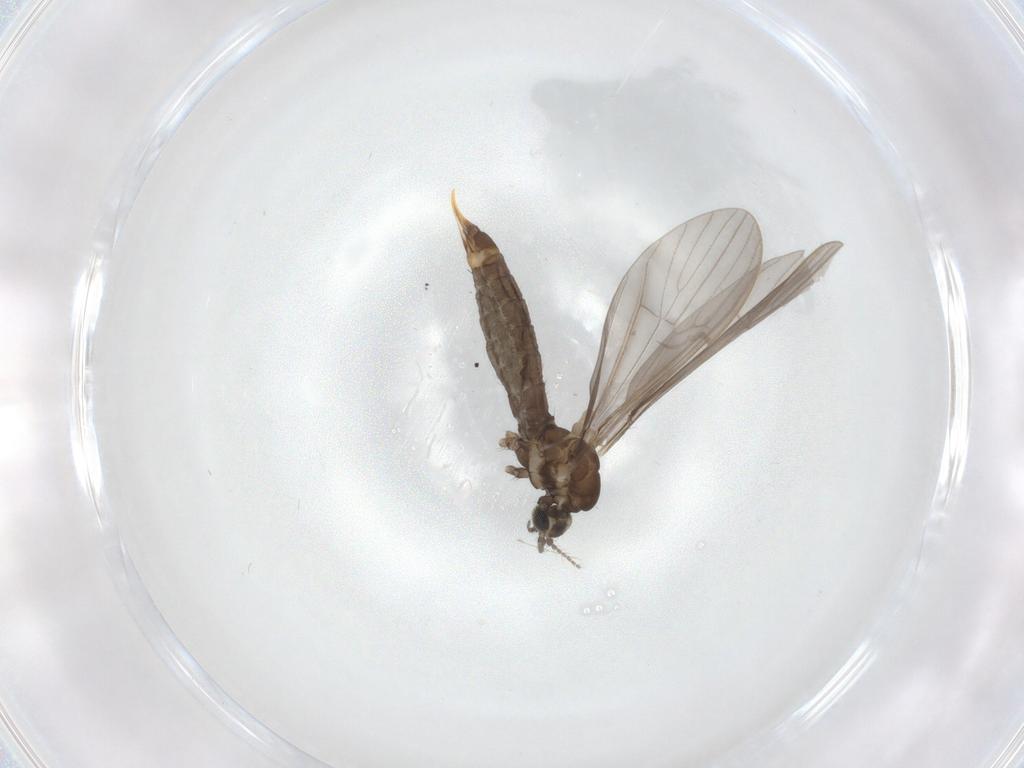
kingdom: Animalia
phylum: Arthropoda
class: Insecta
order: Diptera
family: Limoniidae
